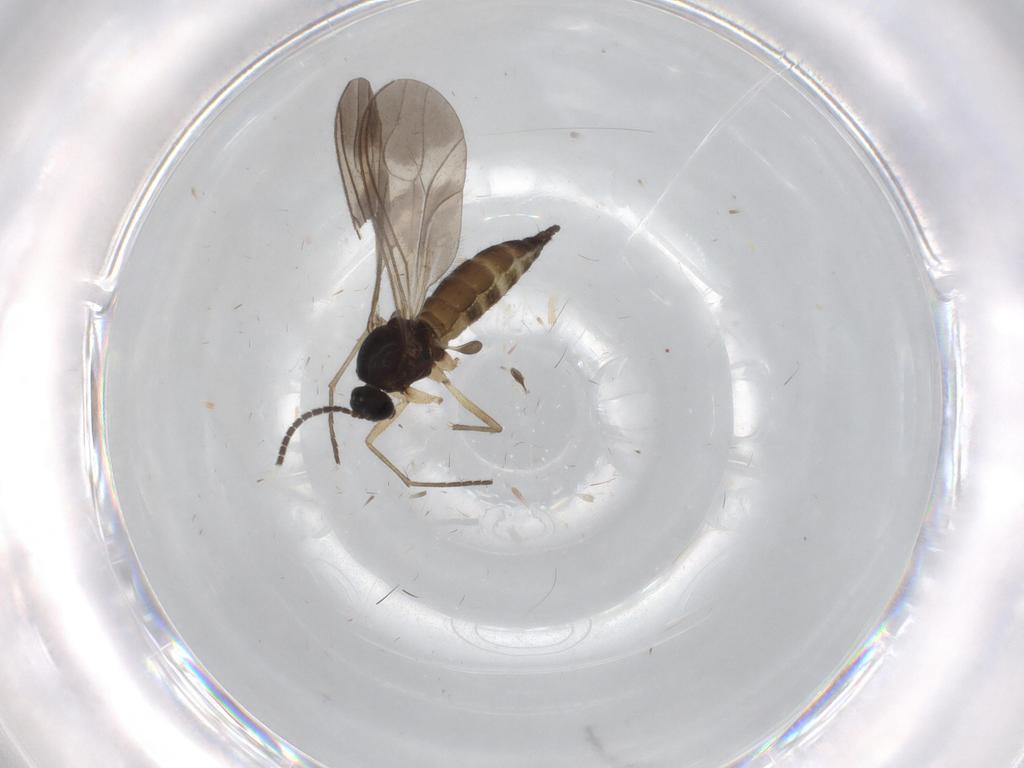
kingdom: Animalia
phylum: Arthropoda
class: Insecta
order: Diptera
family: Sciaridae
